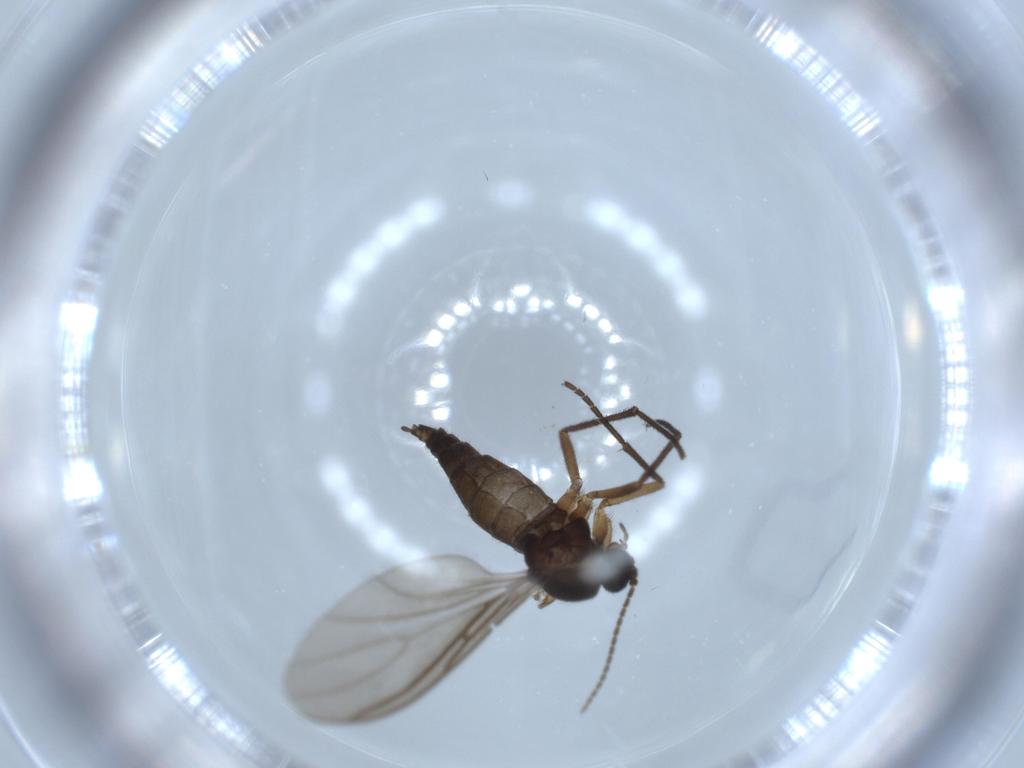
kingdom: Animalia
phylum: Arthropoda
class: Insecta
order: Diptera
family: Sciaridae
